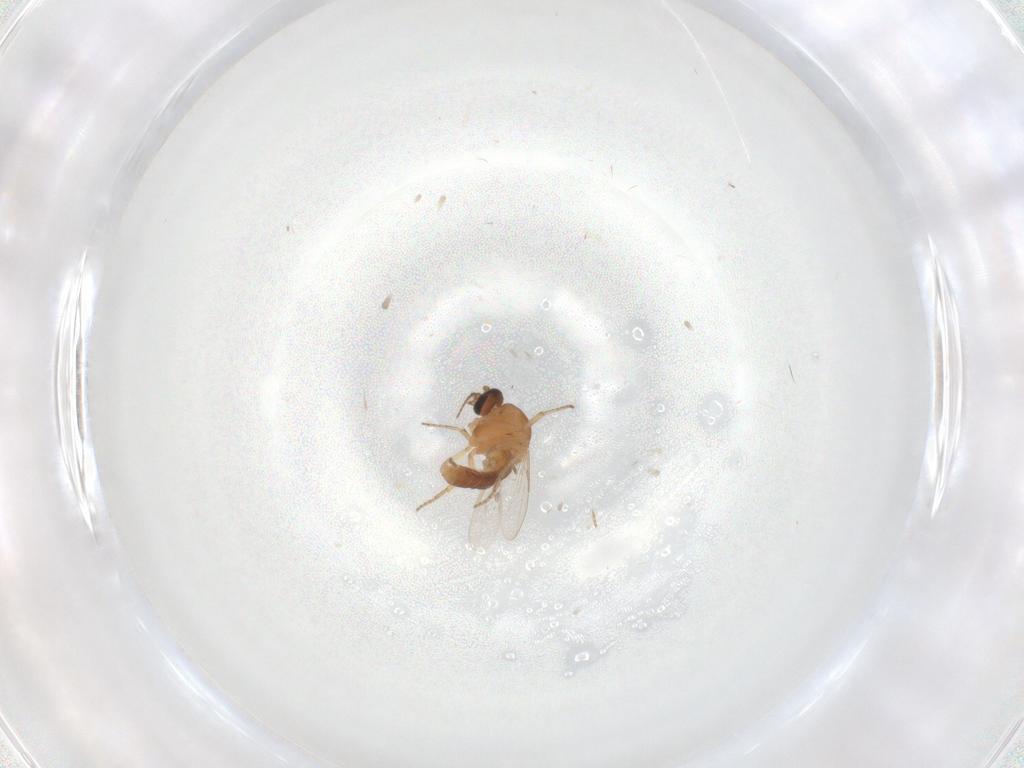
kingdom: Animalia
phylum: Arthropoda
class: Insecta
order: Diptera
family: Ceratopogonidae
